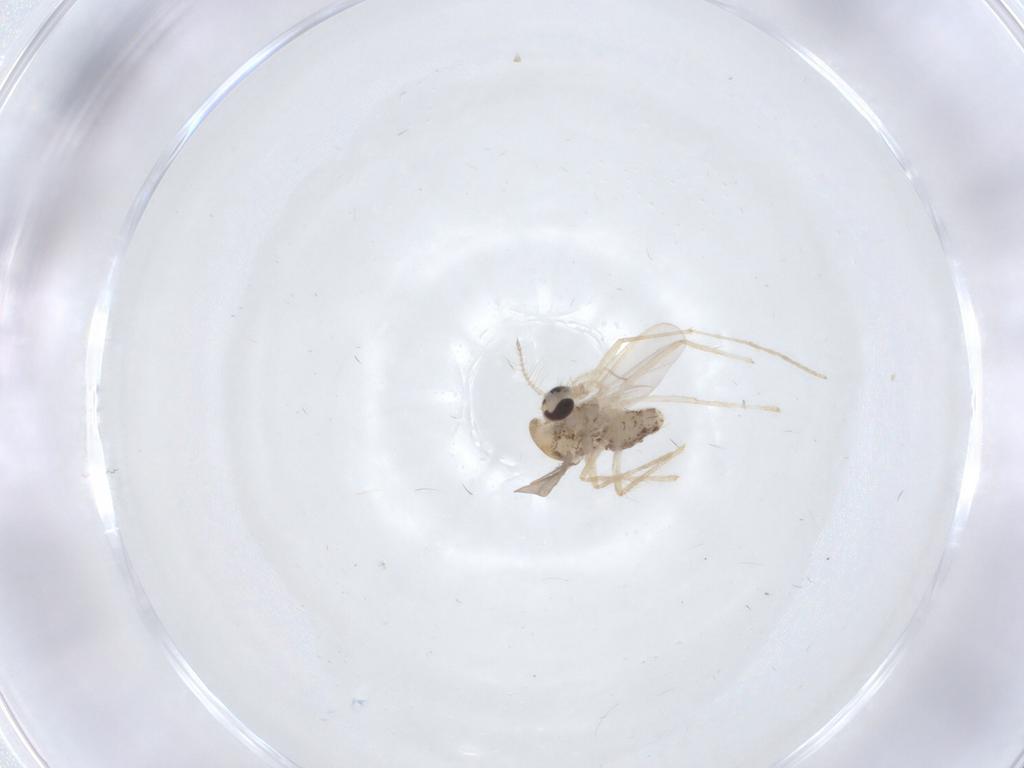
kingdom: Animalia
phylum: Arthropoda
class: Insecta
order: Diptera
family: Chironomidae
